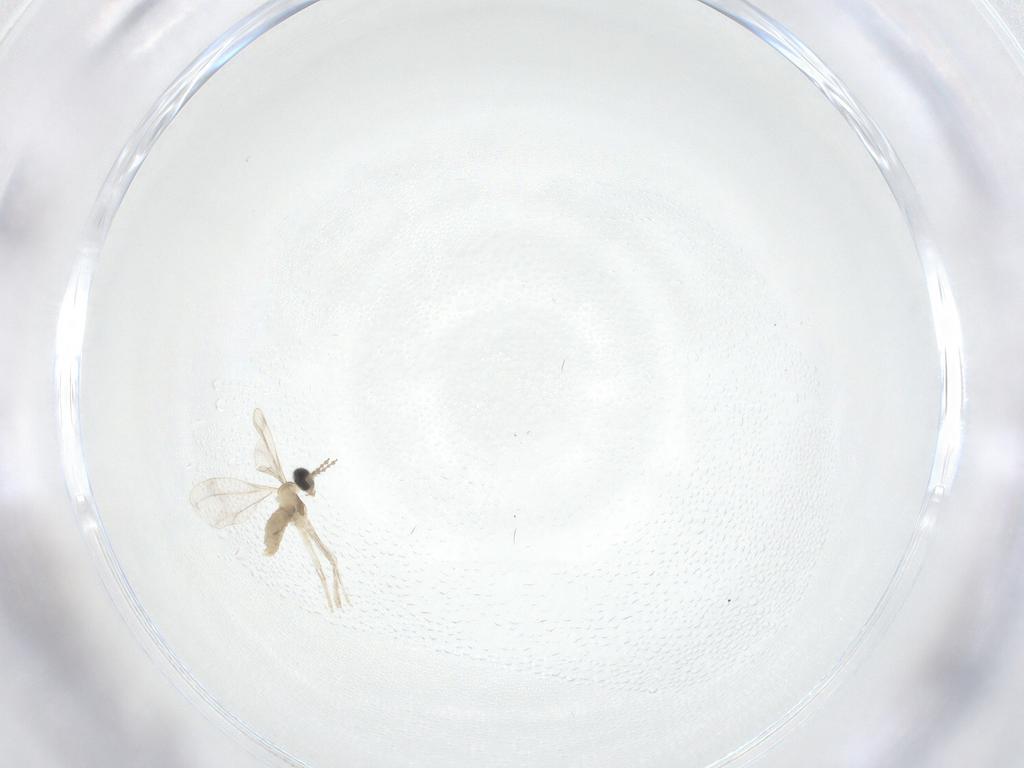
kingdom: Animalia
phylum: Arthropoda
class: Insecta
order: Diptera
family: Cecidomyiidae
